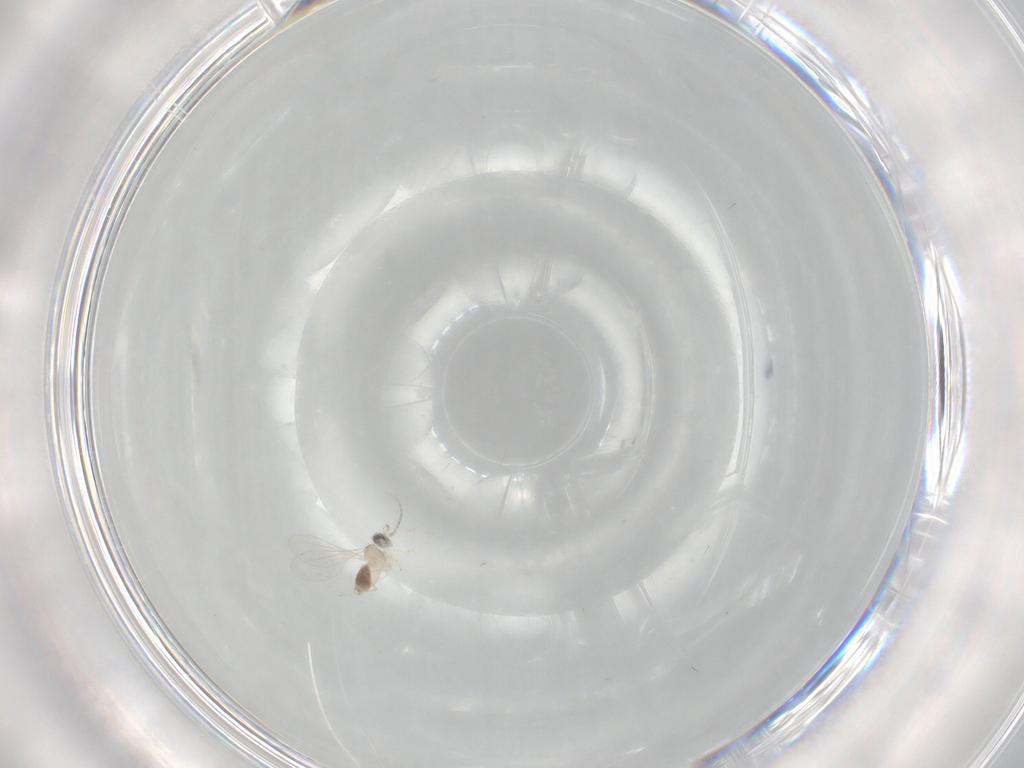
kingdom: Animalia
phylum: Arthropoda
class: Insecta
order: Diptera
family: Cecidomyiidae
